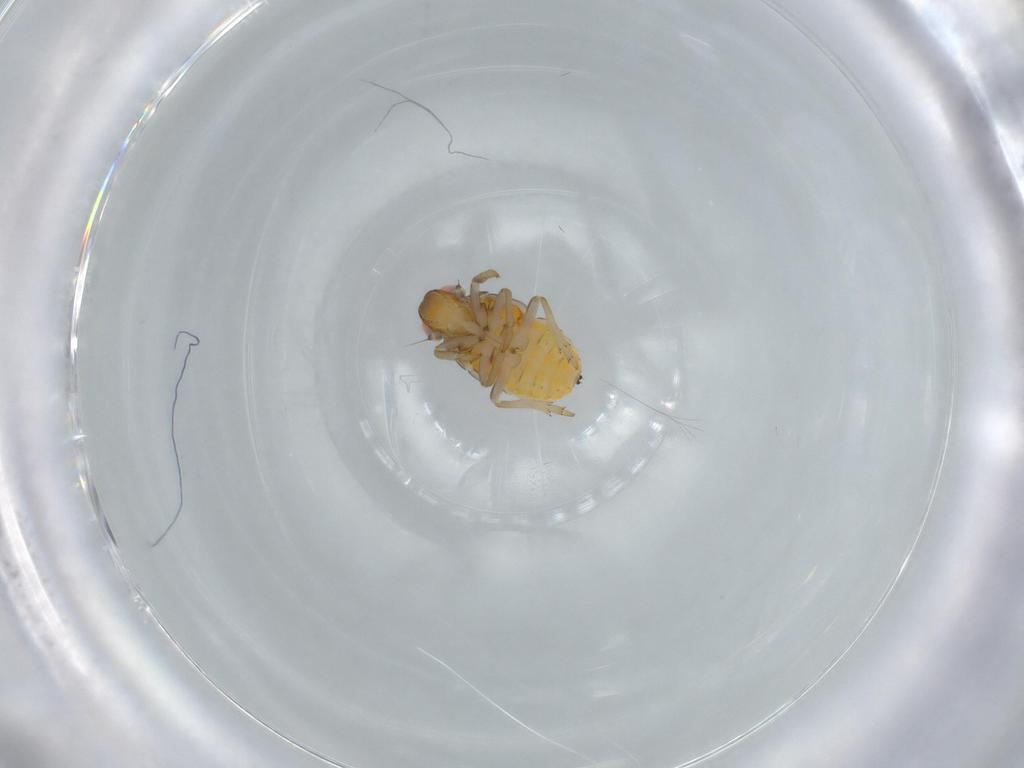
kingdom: Animalia
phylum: Arthropoda
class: Insecta
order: Hemiptera
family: Issidae
